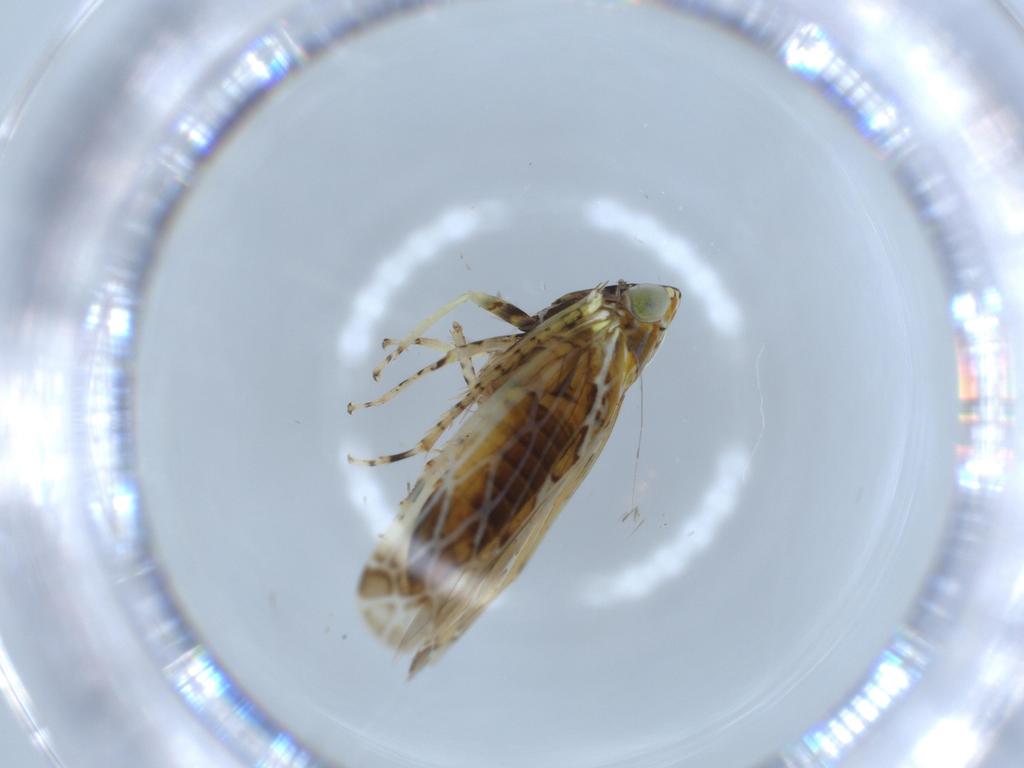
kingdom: Animalia
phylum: Arthropoda
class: Insecta
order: Hemiptera
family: Cicadellidae
